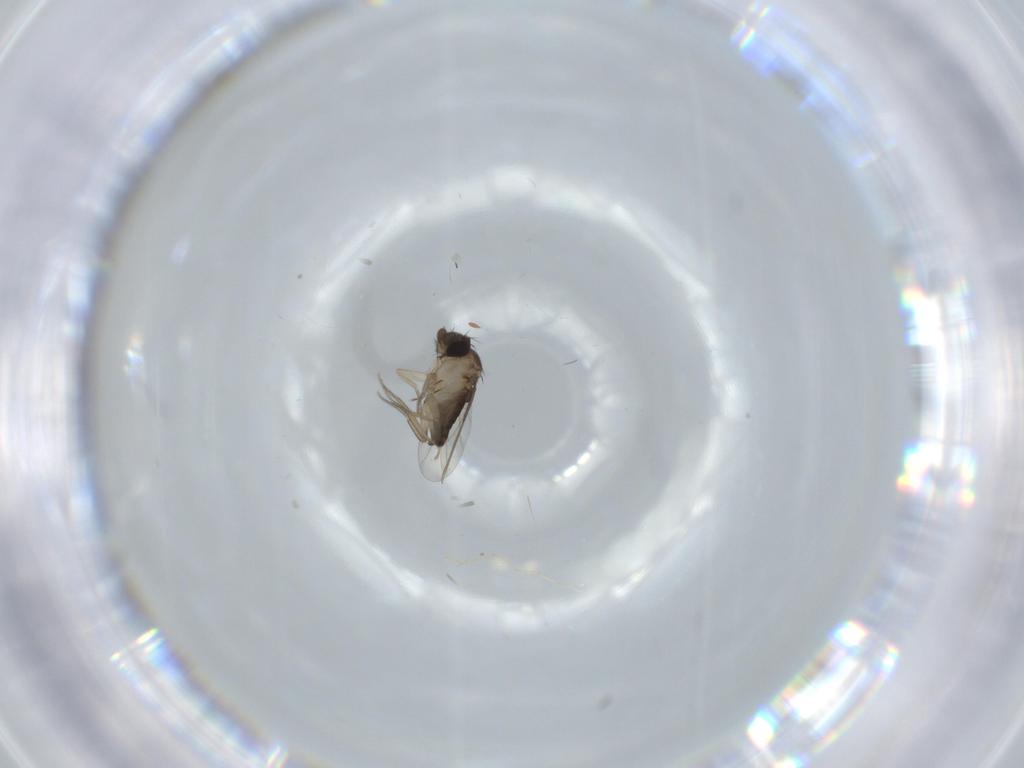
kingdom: Animalia
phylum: Arthropoda
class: Insecta
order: Diptera
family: Phoridae
